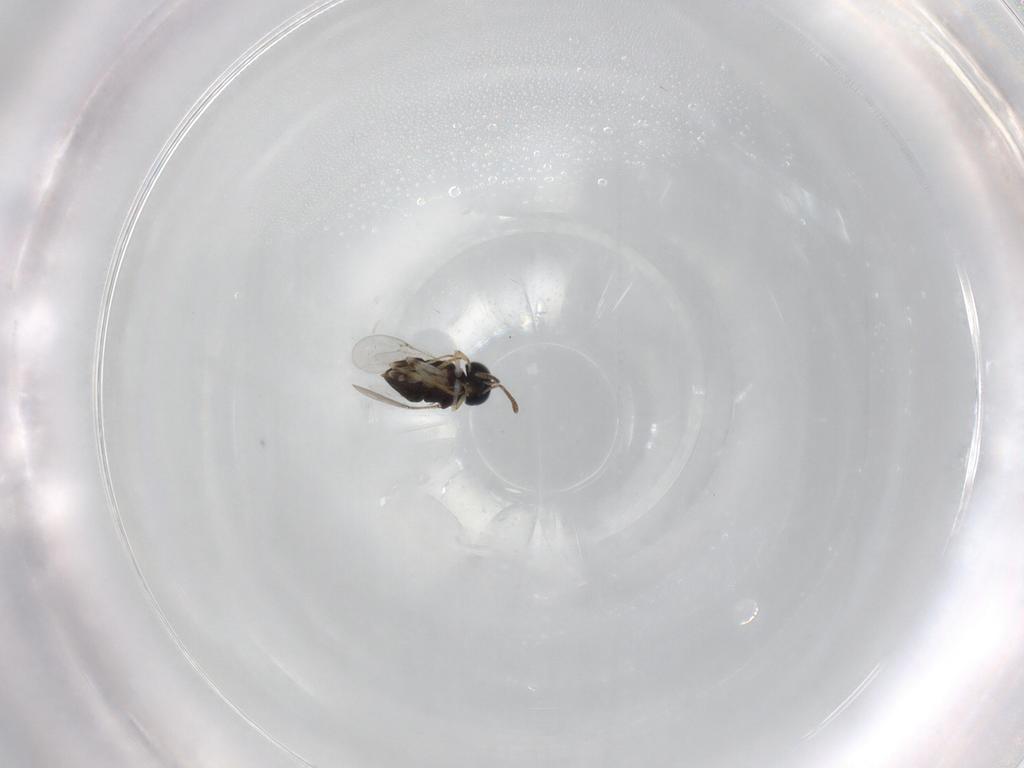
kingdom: Animalia
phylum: Arthropoda
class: Insecta
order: Hymenoptera
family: Encyrtidae
